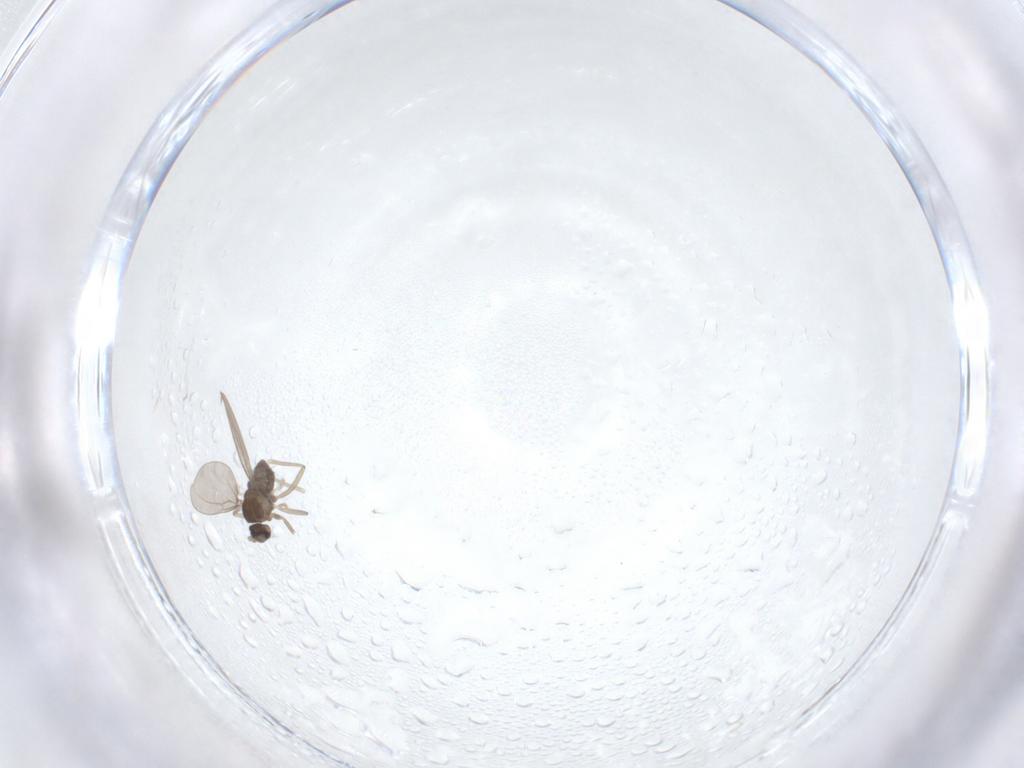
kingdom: Animalia
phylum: Arthropoda
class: Insecta
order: Diptera
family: Cecidomyiidae
